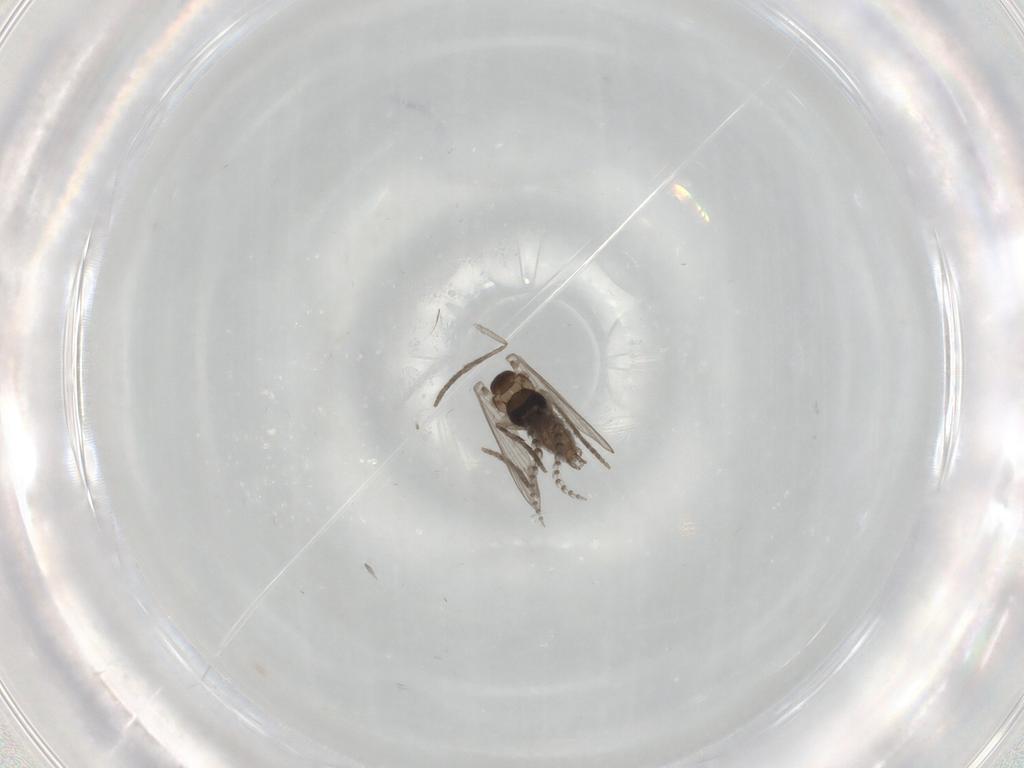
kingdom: Animalia
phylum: Arthropoda
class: Insecta
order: Diptera
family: Psychodidae
